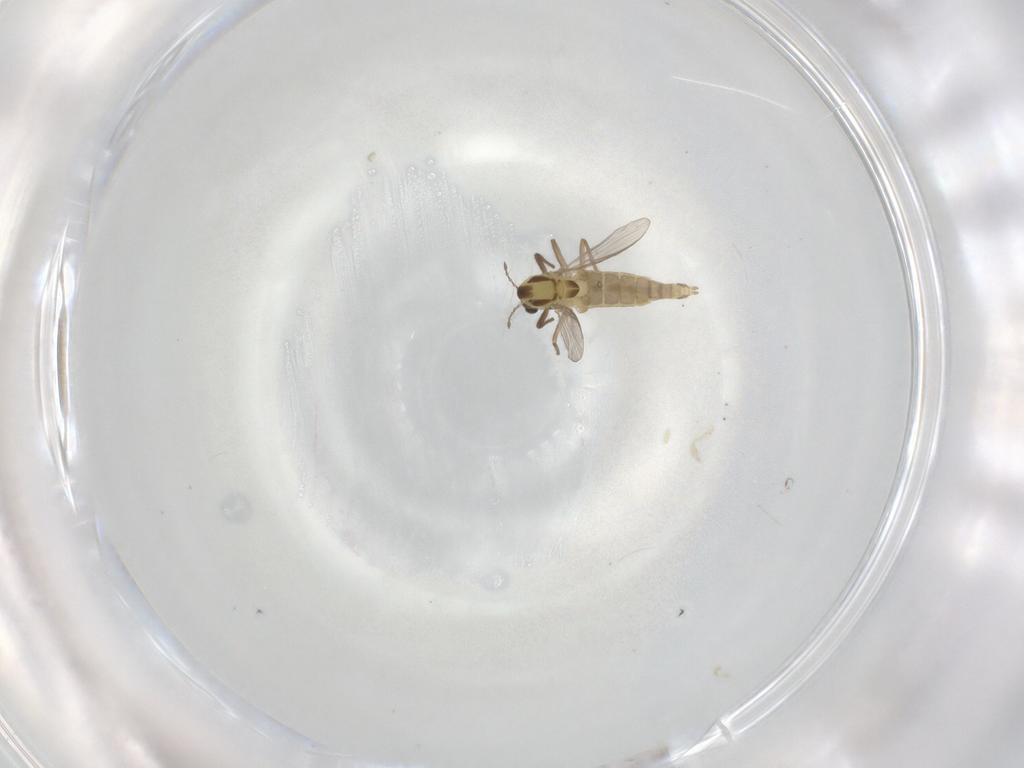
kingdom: Animalia
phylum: Arthropoda
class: Insecta
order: Diptera
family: Chironomidae
